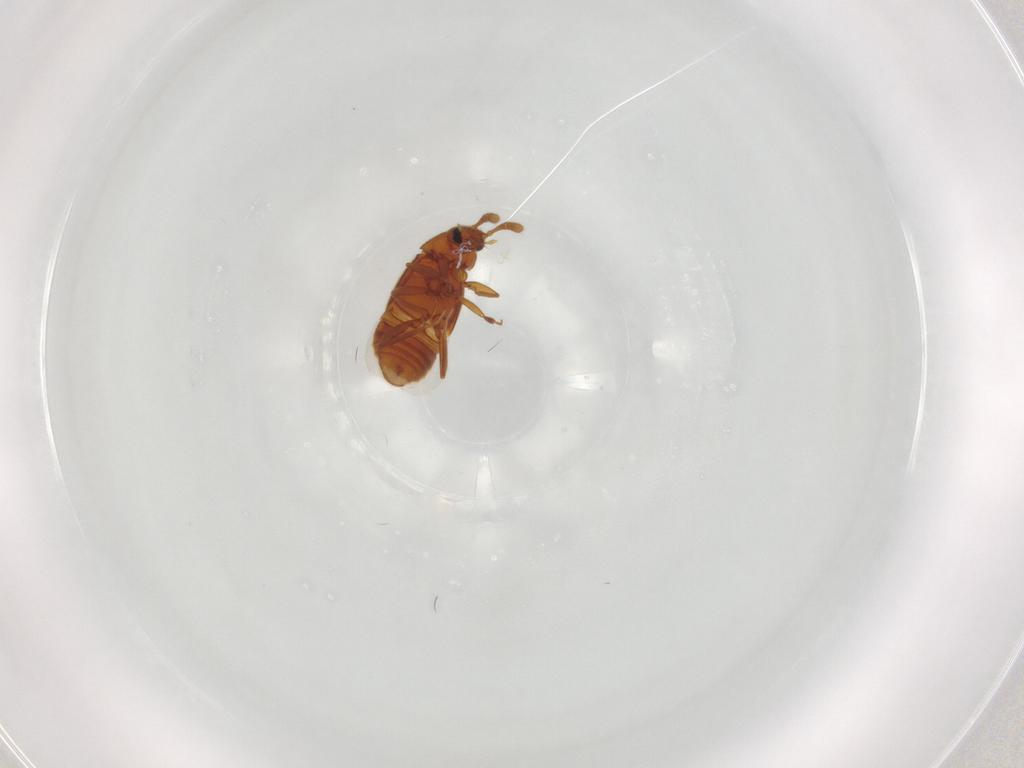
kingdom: Animalia
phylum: Arthropoda
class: Insecta
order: Coleoptera
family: Staphylinidae
